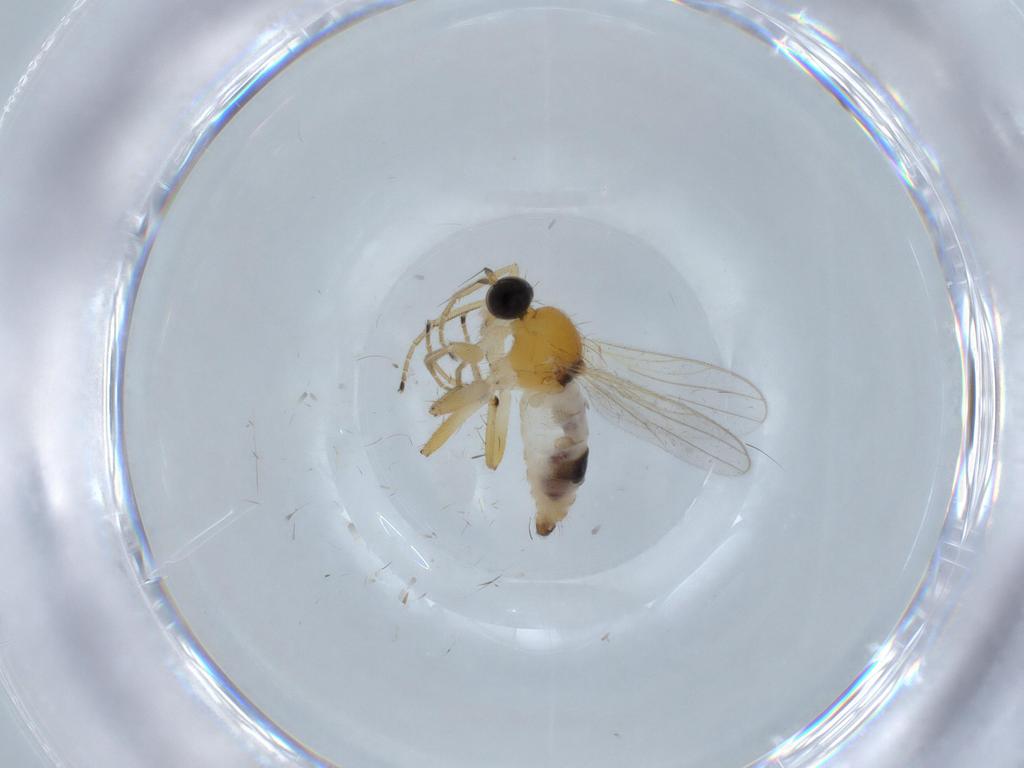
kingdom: Animalia
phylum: Arthropoda
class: Insecta
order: Diptera
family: Hybotidae
